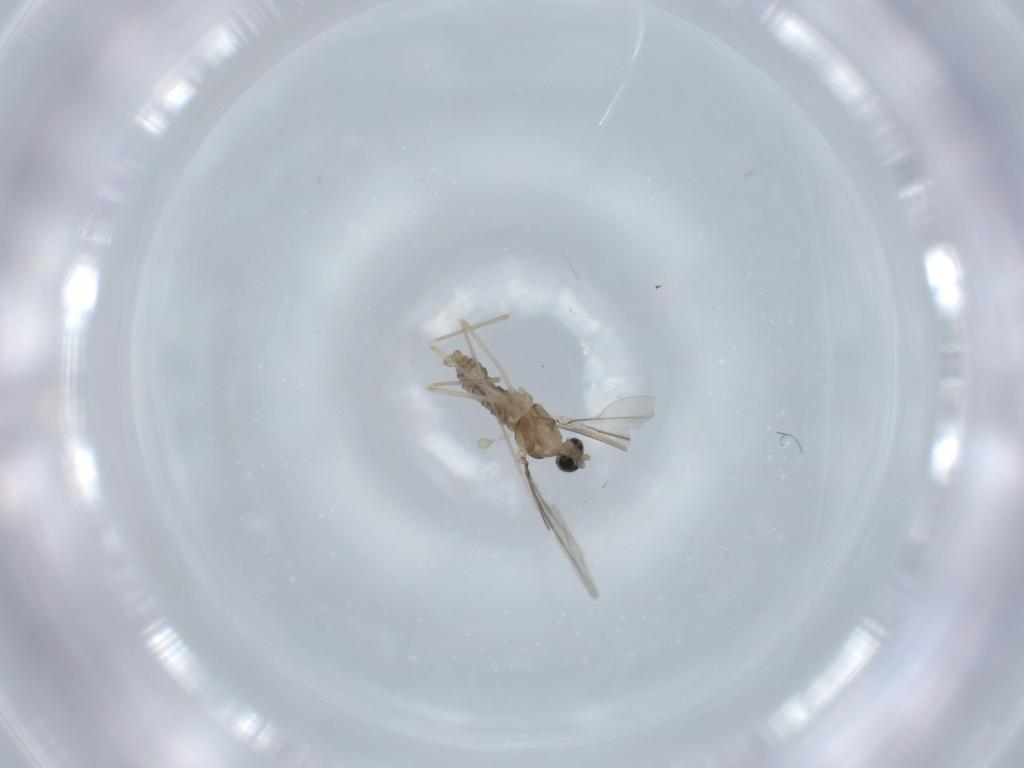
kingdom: Animalia
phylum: Arthropoda
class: Insecta
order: Diptera
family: Cecidomyiidae
